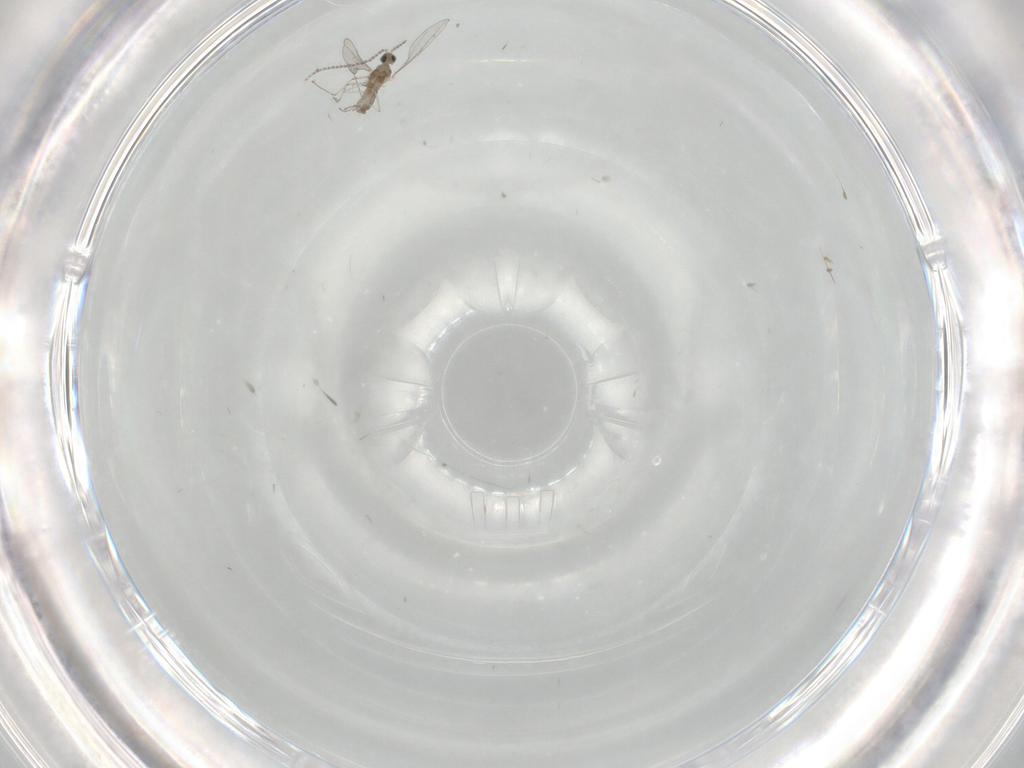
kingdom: Animalia
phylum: Arthropoda
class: Insecta
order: Diptera
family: Cecidomyiidae
